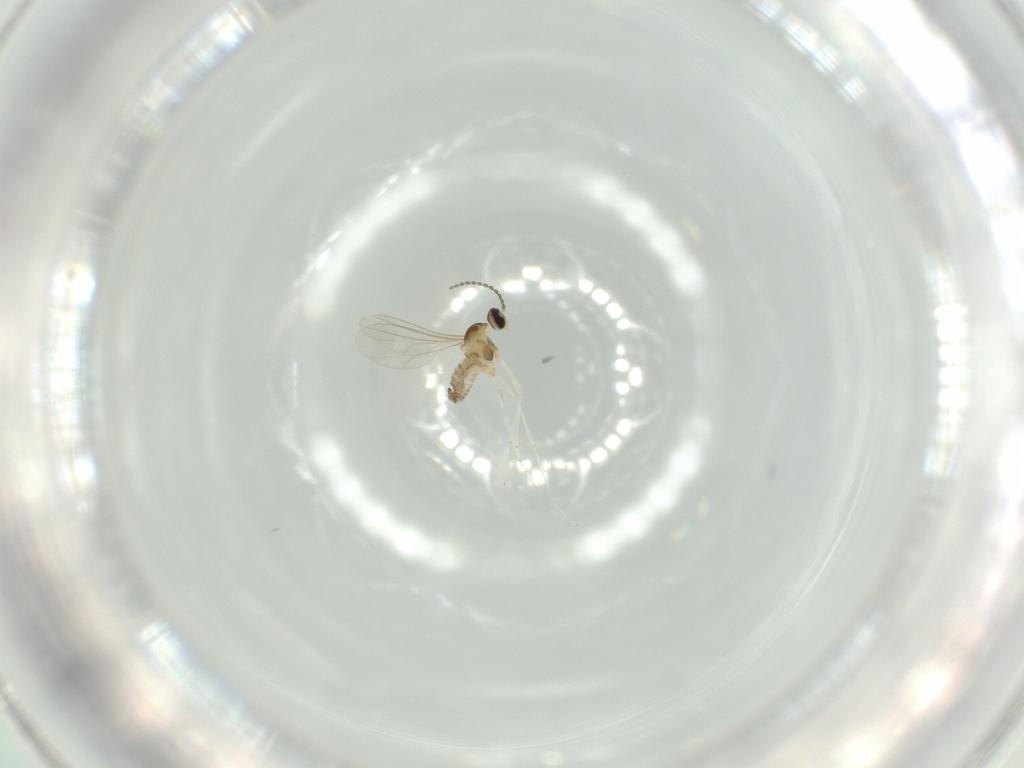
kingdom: Animalia
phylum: Arthropoda
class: Insecta
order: Diptera
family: Cecidomyiidae
